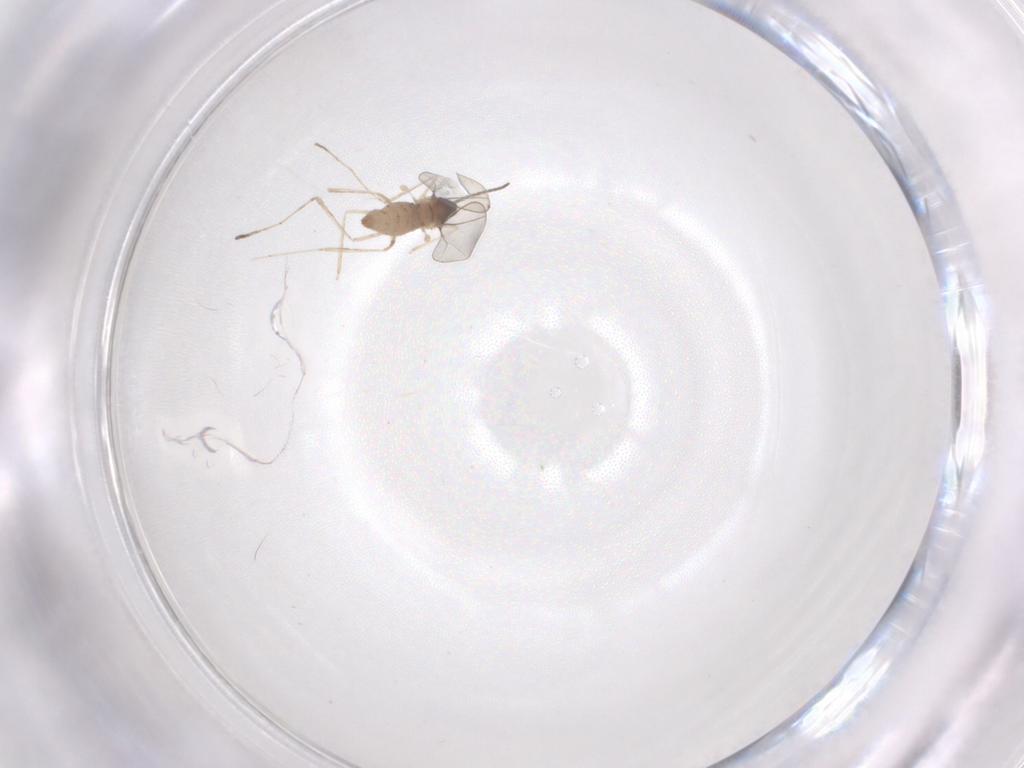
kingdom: Animalia
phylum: Arthropoda
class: Insecta
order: Diptera
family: Cecidomyiidae
